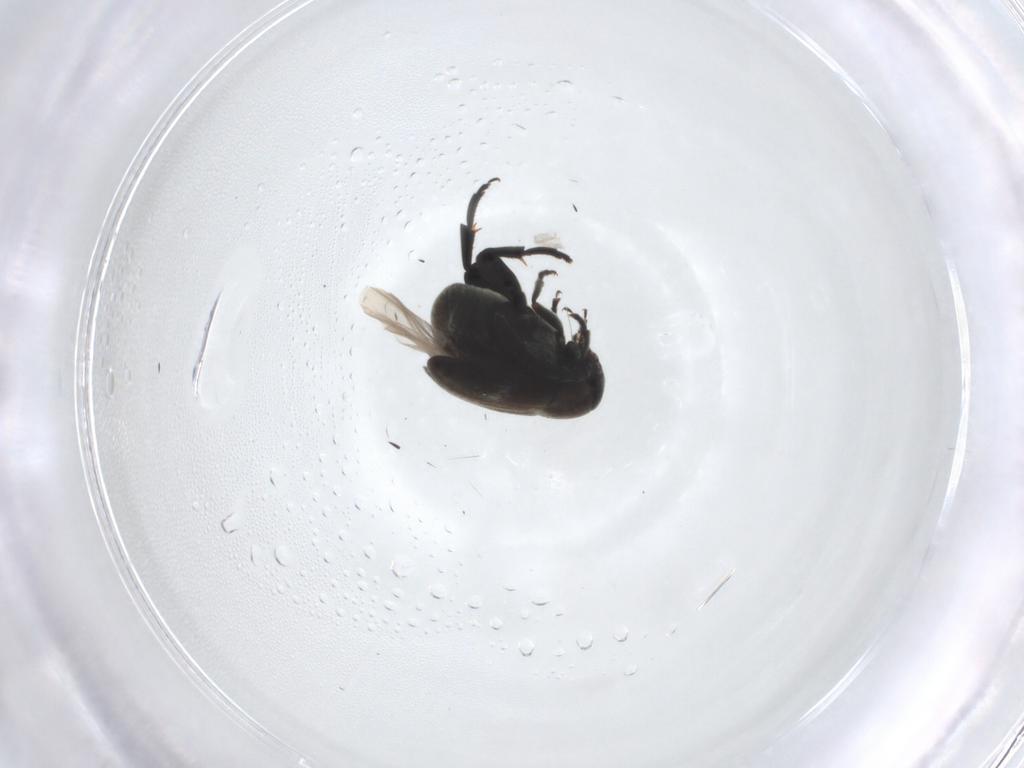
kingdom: Animalia
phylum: Arthropoda
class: Insecta
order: Coleoptera
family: Chrysomelidae
